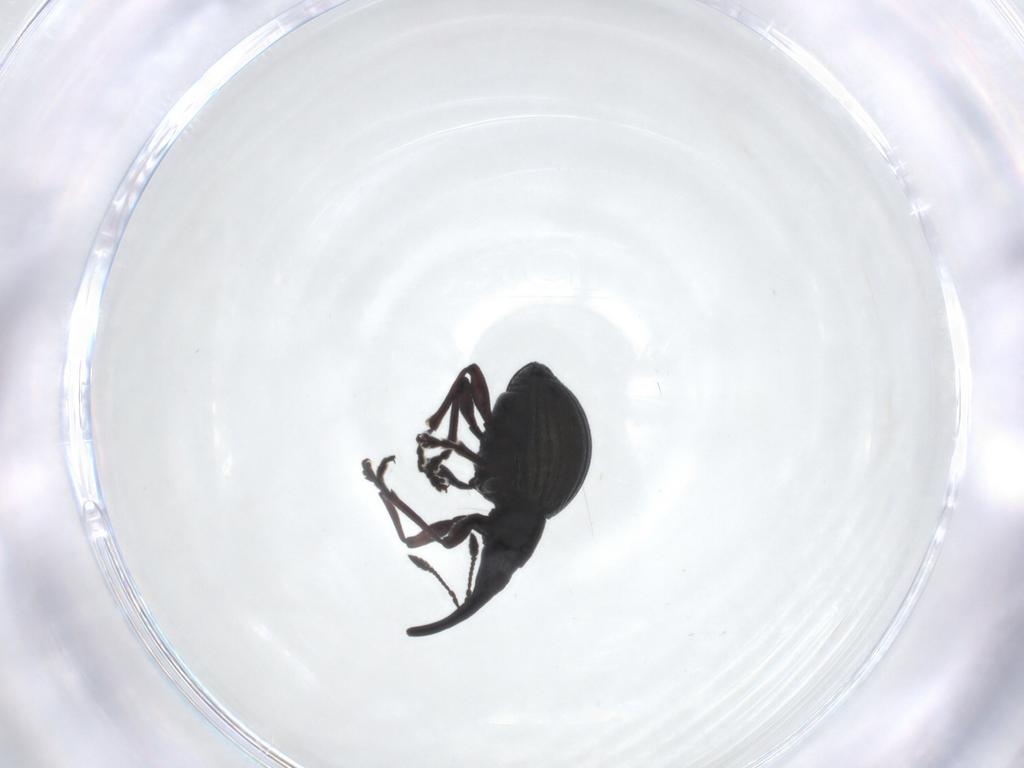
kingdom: Animalia
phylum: Arthropoda
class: Insecta
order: Coleoptera
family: Brentidae
